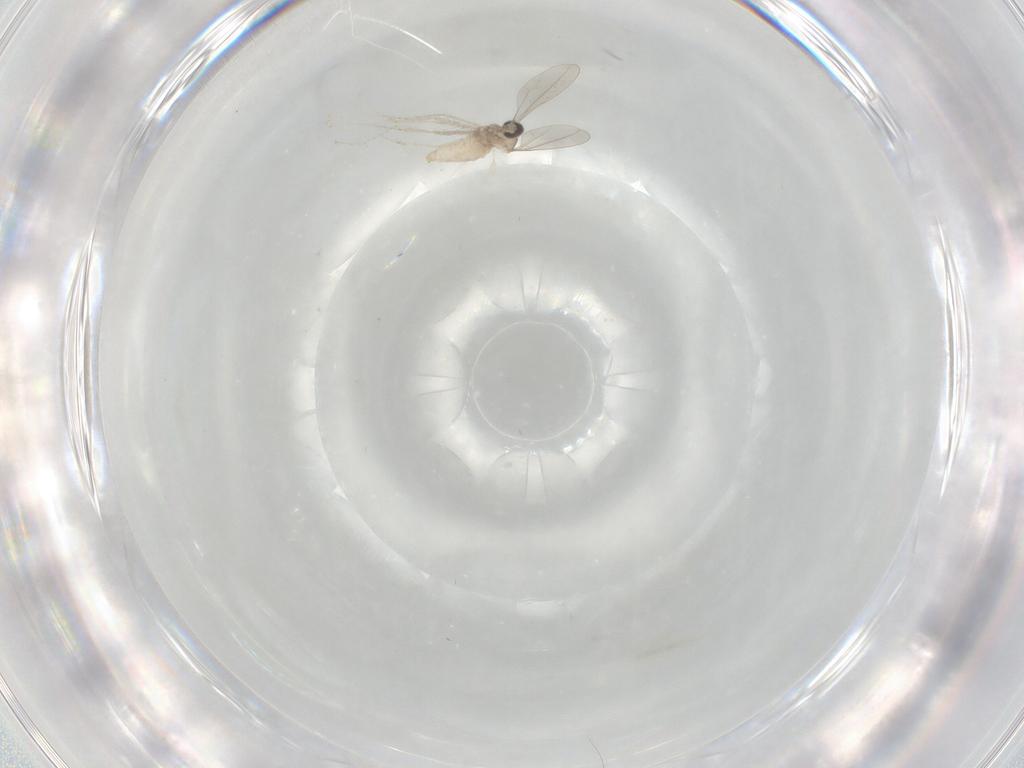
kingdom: Animalia
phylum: Arthropoda
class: Insecta
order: Diptera
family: Cecidomyiidae
